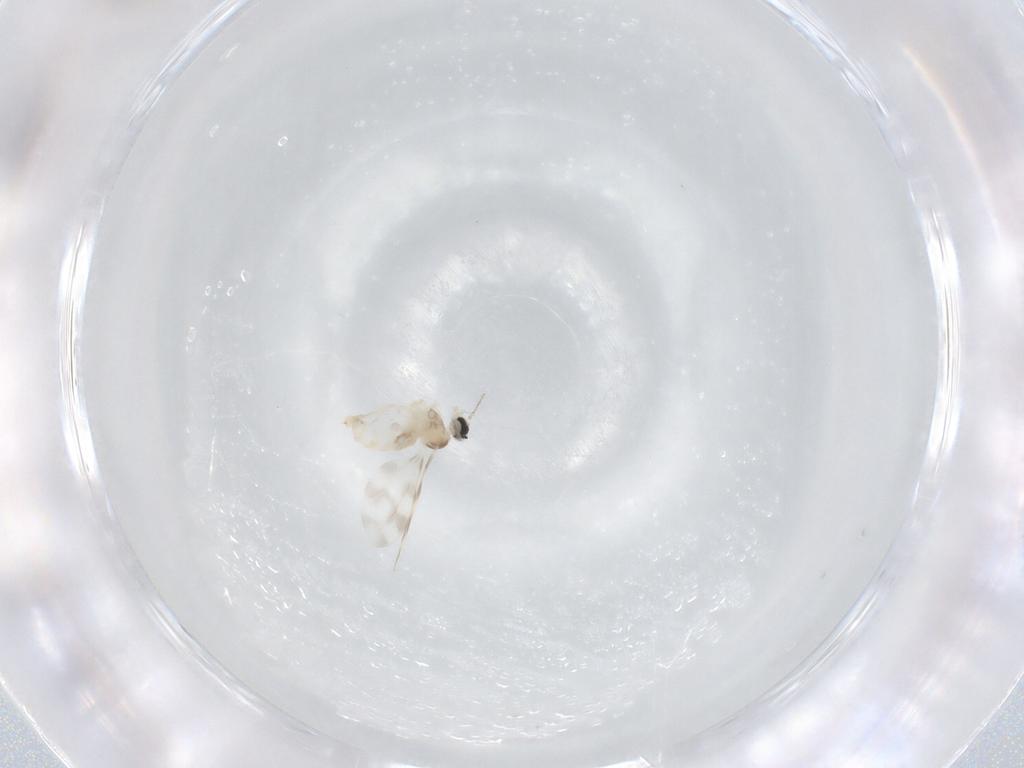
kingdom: Animalia
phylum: Arthropoda
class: Insecta
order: Diptera
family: Cecidomyiidae
